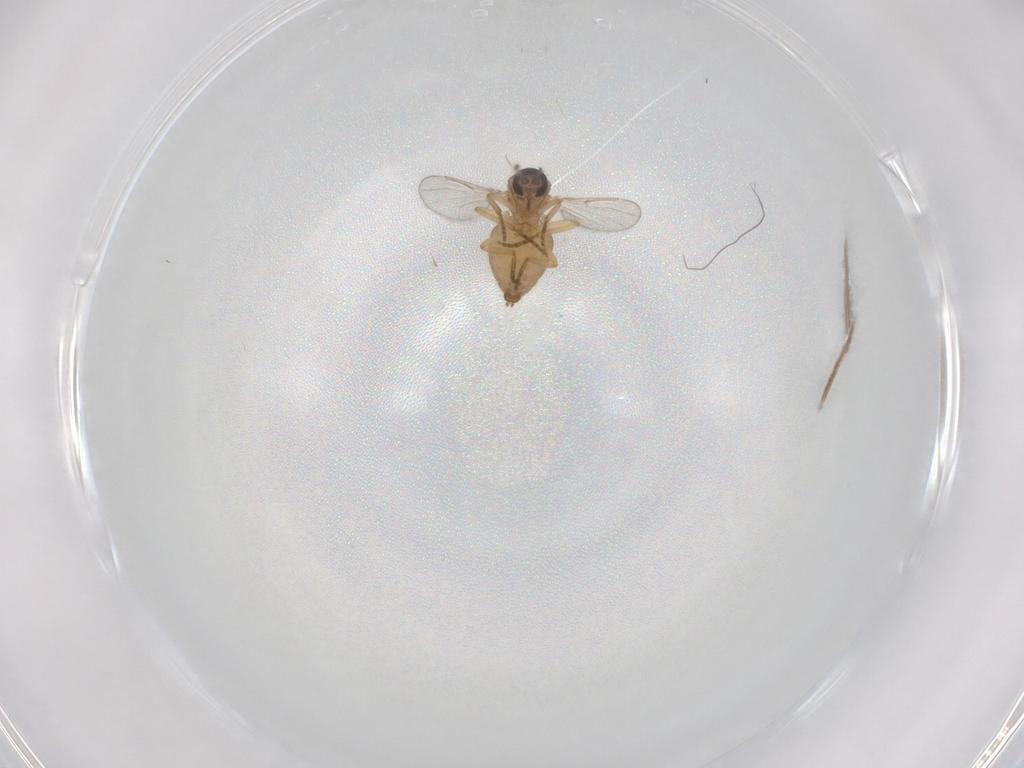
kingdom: Animalia
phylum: Arthropoda
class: Insecta
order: Diptera
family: Ceratopogonidae
